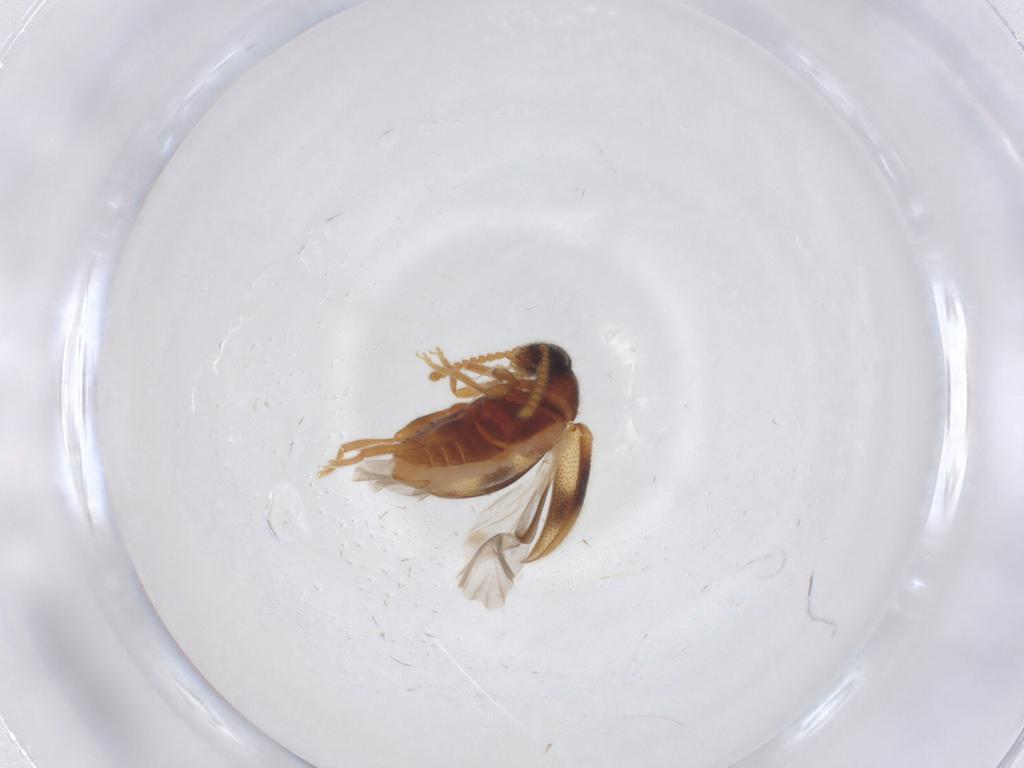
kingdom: Animalia
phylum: Arthropoda
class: Insecta
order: Coleoptera
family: Aderidae
